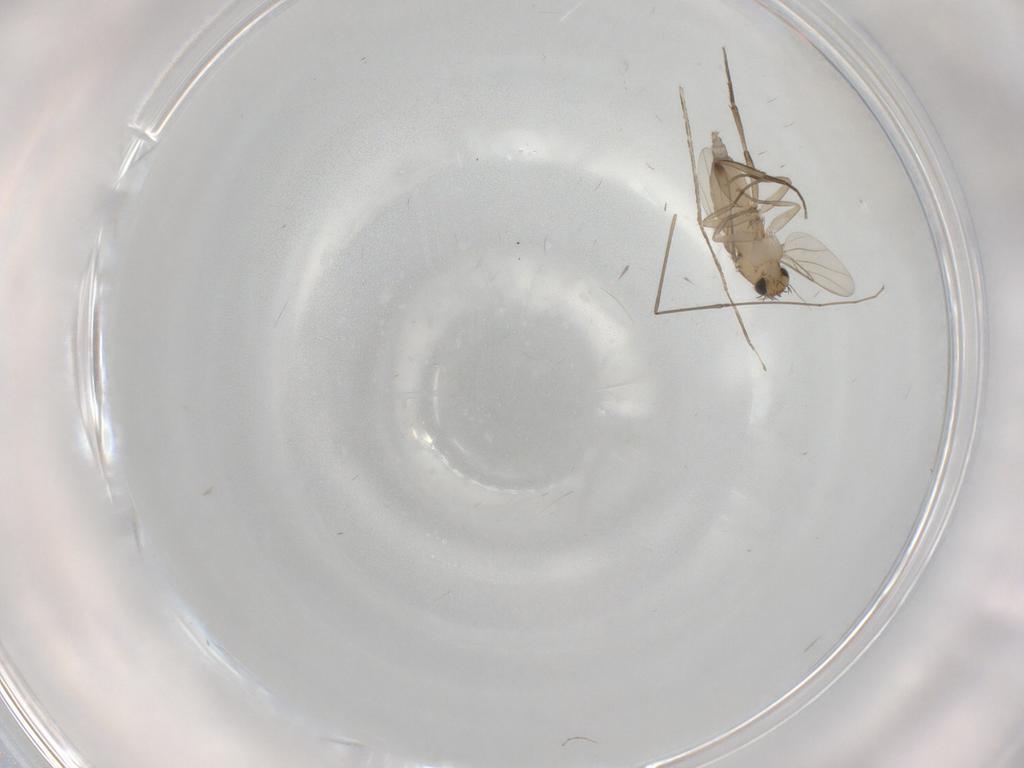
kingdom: Animalia
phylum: Arthropoda
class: Insecta
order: Diptera
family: Phoridae
